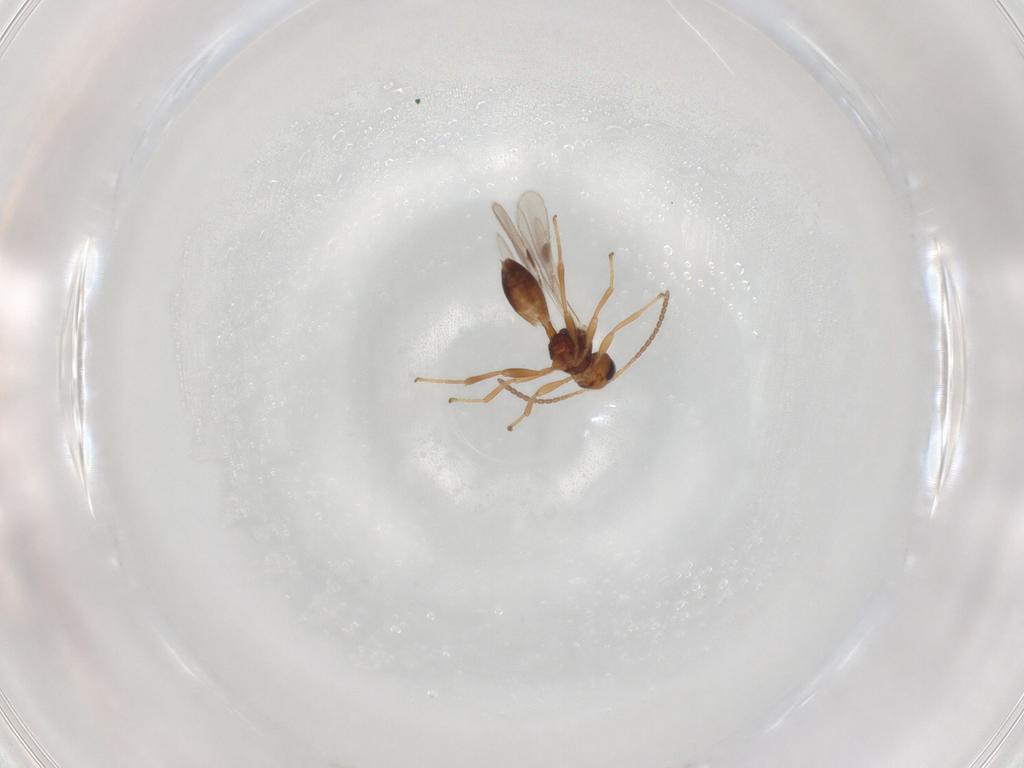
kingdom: Animalia
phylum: Arthropoda
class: Insecta
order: Hymenoptera
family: Braconidae
